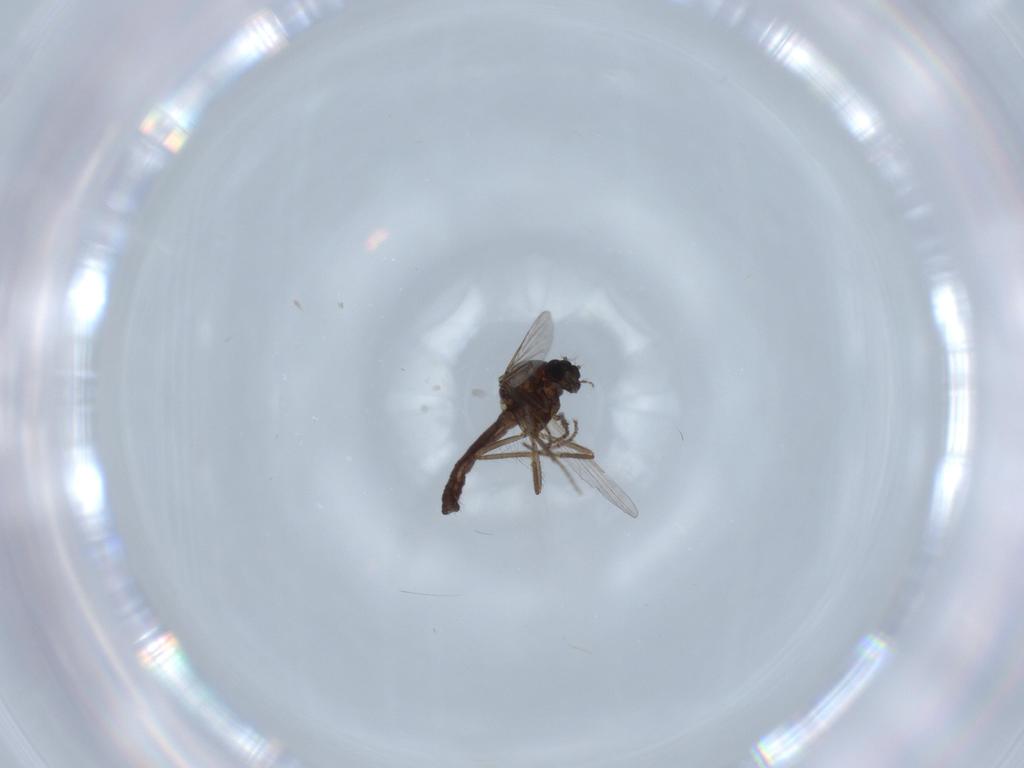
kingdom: Animalia
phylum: Arthropoda
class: Insecta
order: Diptera
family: Ceratopogonidae
